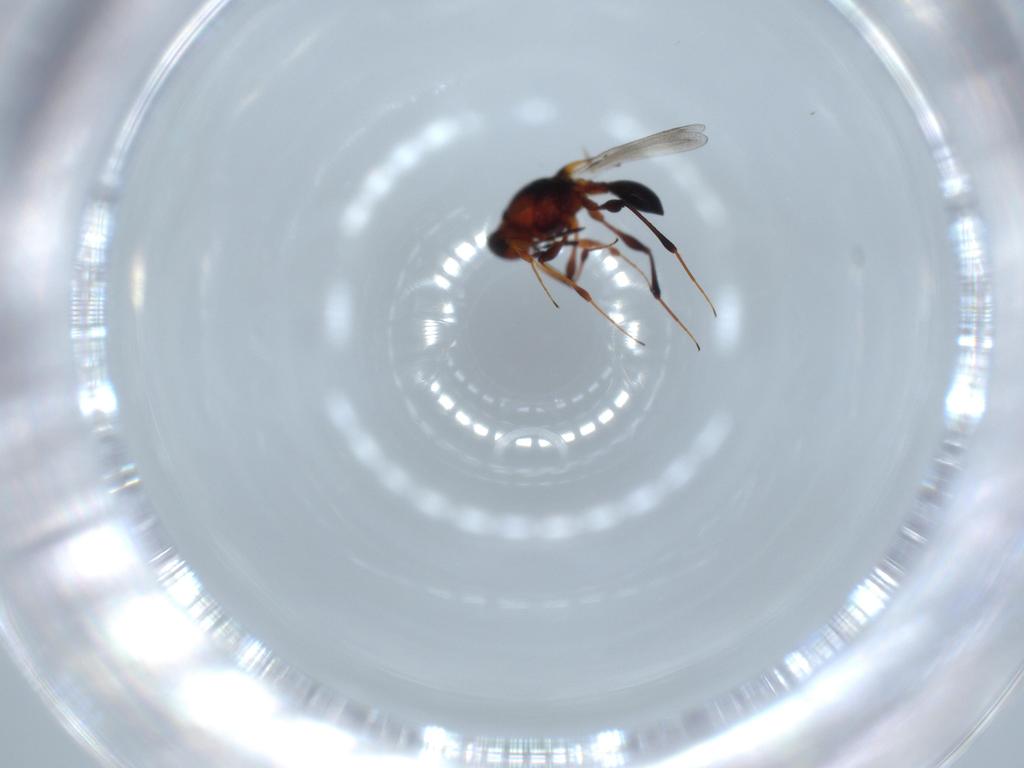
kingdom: Animalia
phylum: Arthropoda
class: Insecta
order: Hymenoptera
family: Platygastridae
